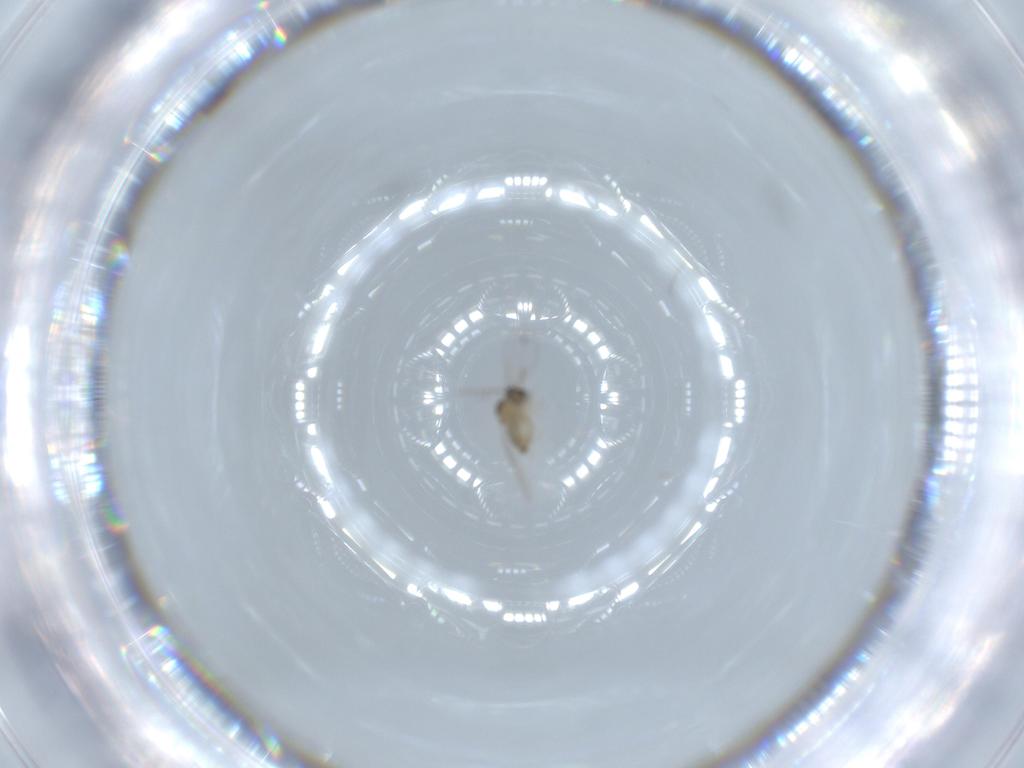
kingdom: Animalia
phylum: Arthropoda
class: Insecta
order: Diptera
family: Cecidomyiidae
